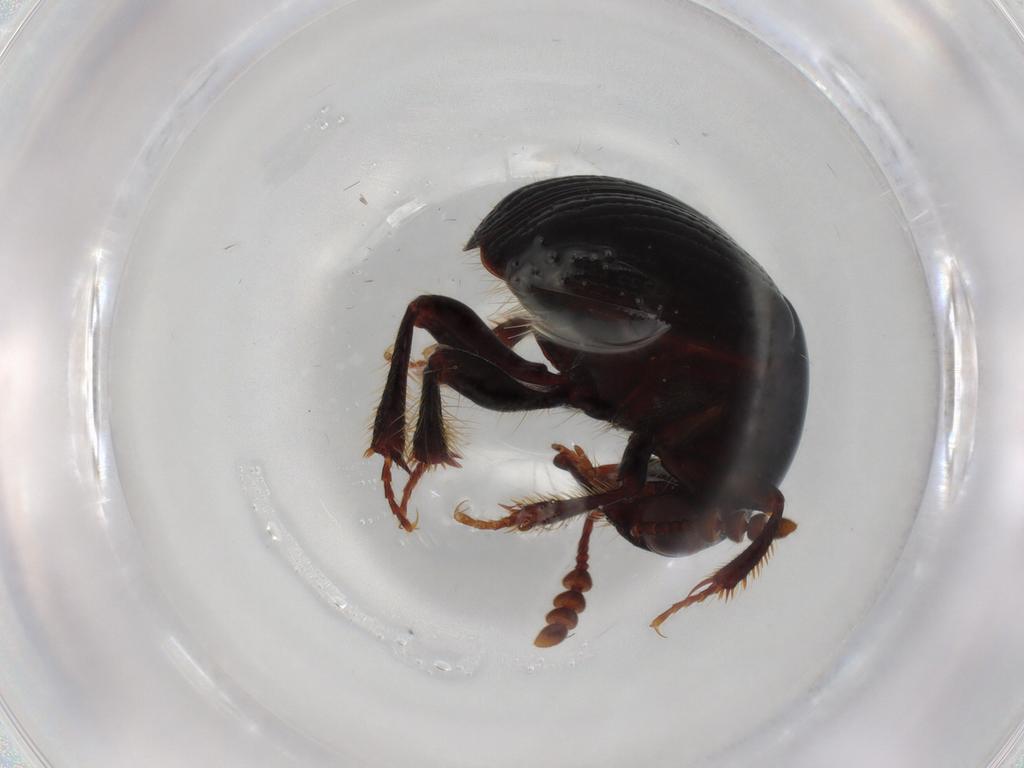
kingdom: Animalia
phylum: Arthropoda
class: Insecta
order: Coleoptera
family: Leiodidae
